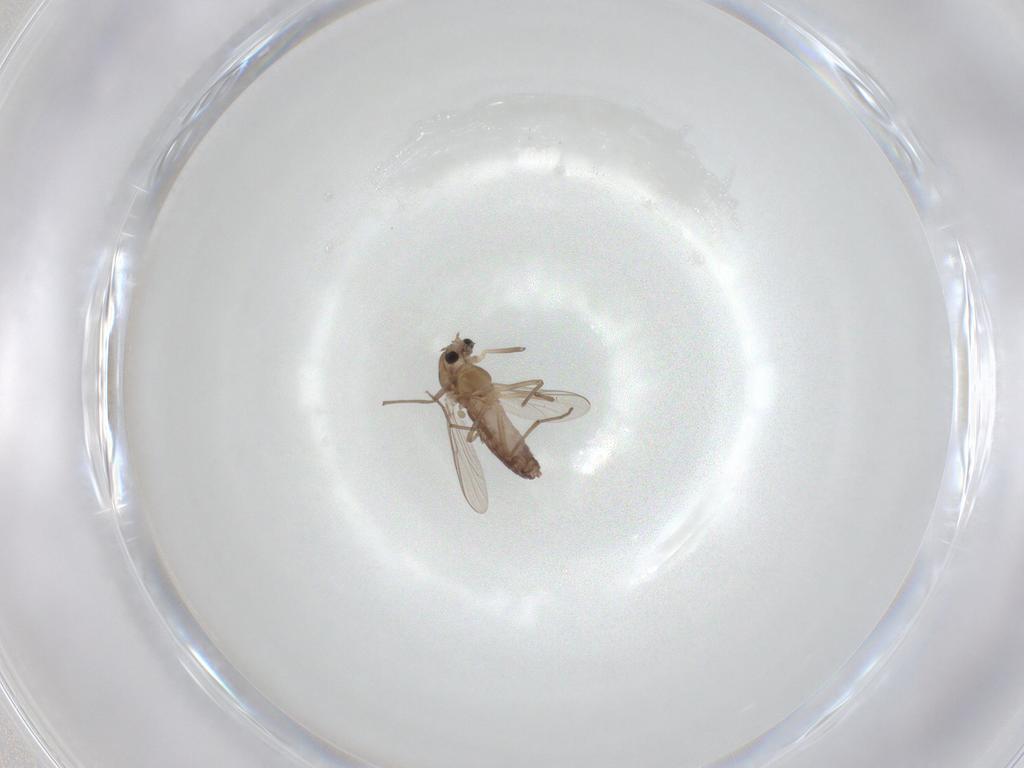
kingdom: Animalia
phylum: Arthropoda
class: Insecta
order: Diptera
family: Chironomidae
